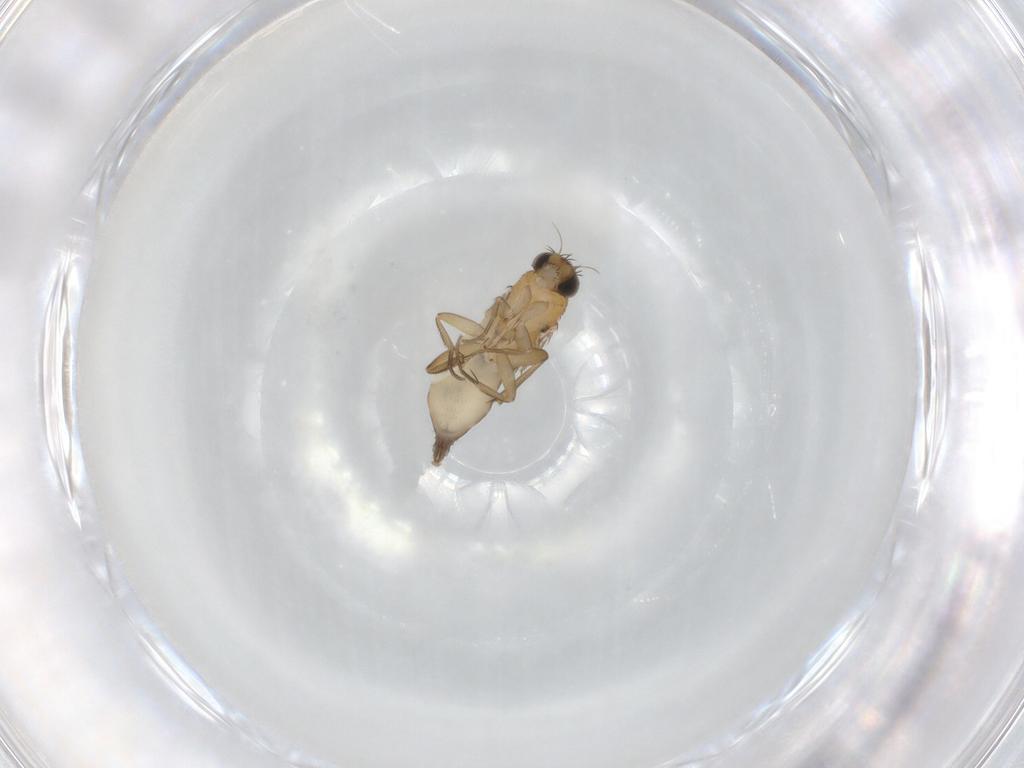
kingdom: Animalia
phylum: Arthropoda
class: Insecta
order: Diptera
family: Phoridae
